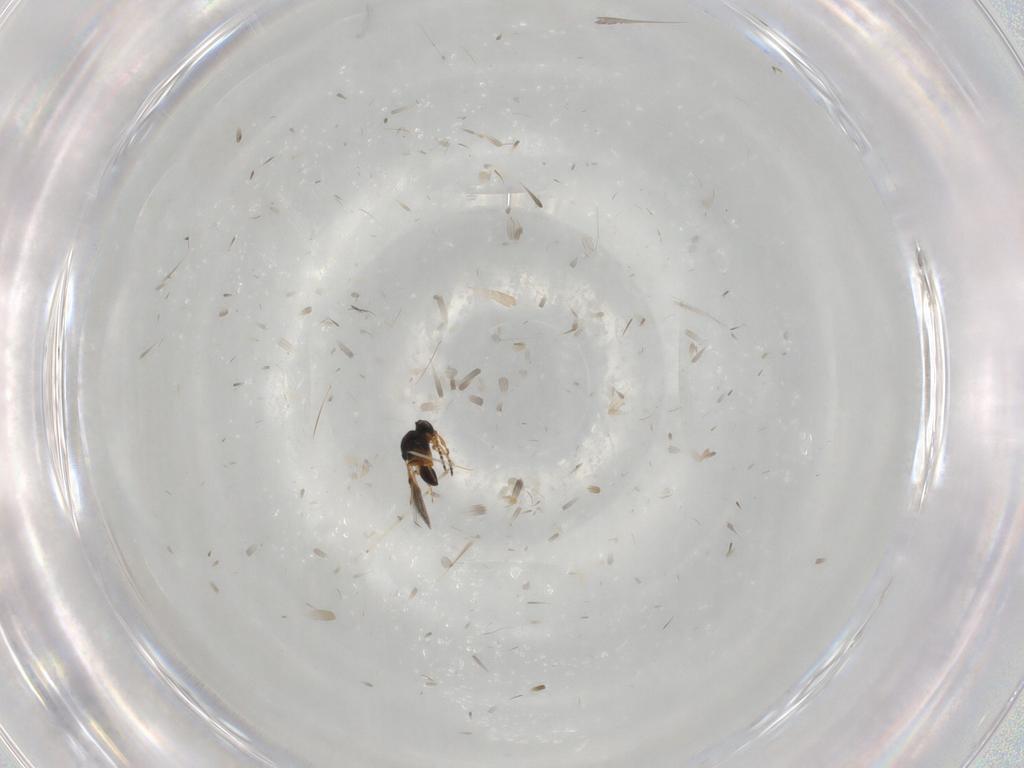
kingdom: Animalia
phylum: Arthropoda
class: Insecta
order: Hymenoptera
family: Platygastridae
